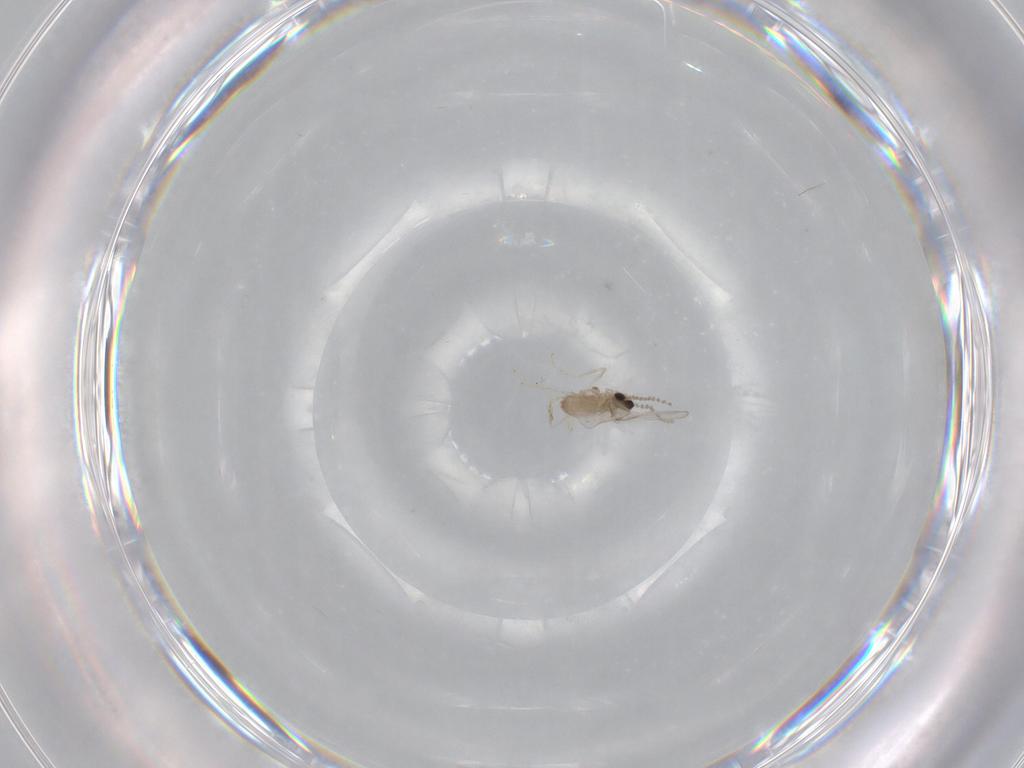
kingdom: Animalia
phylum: Arthropoda
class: Insecta
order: Diptera
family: Cecidomyiidae
